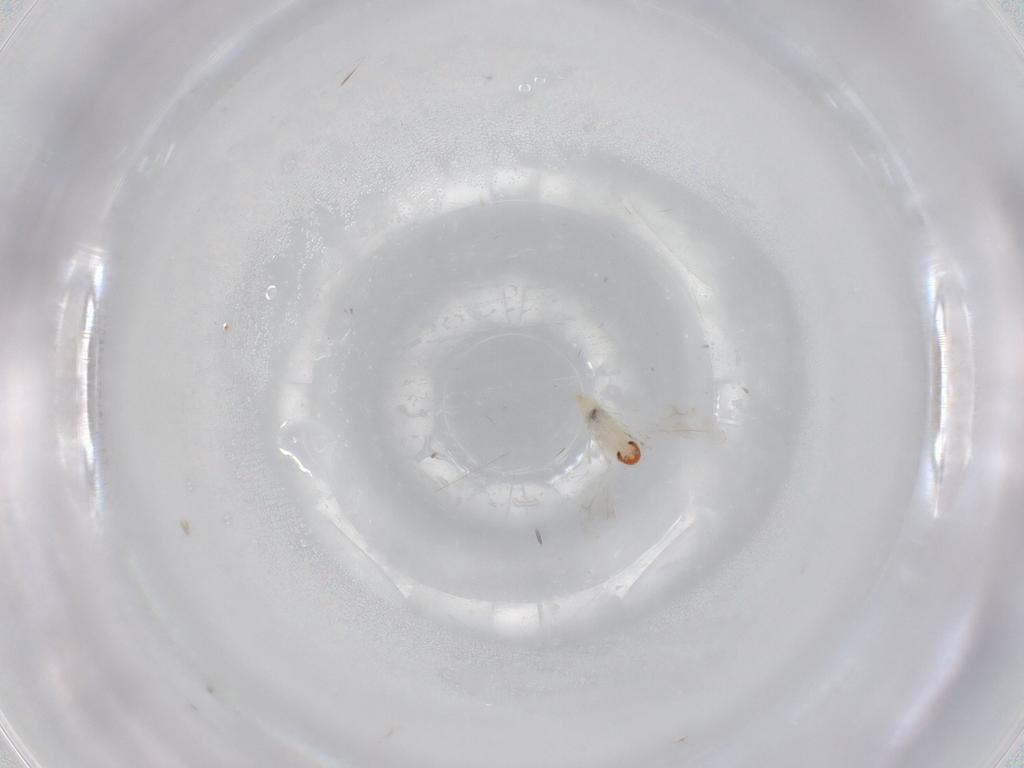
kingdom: Animalia
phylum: Arthropoda
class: Insecta
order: Diptera
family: Cecidomyiidae
